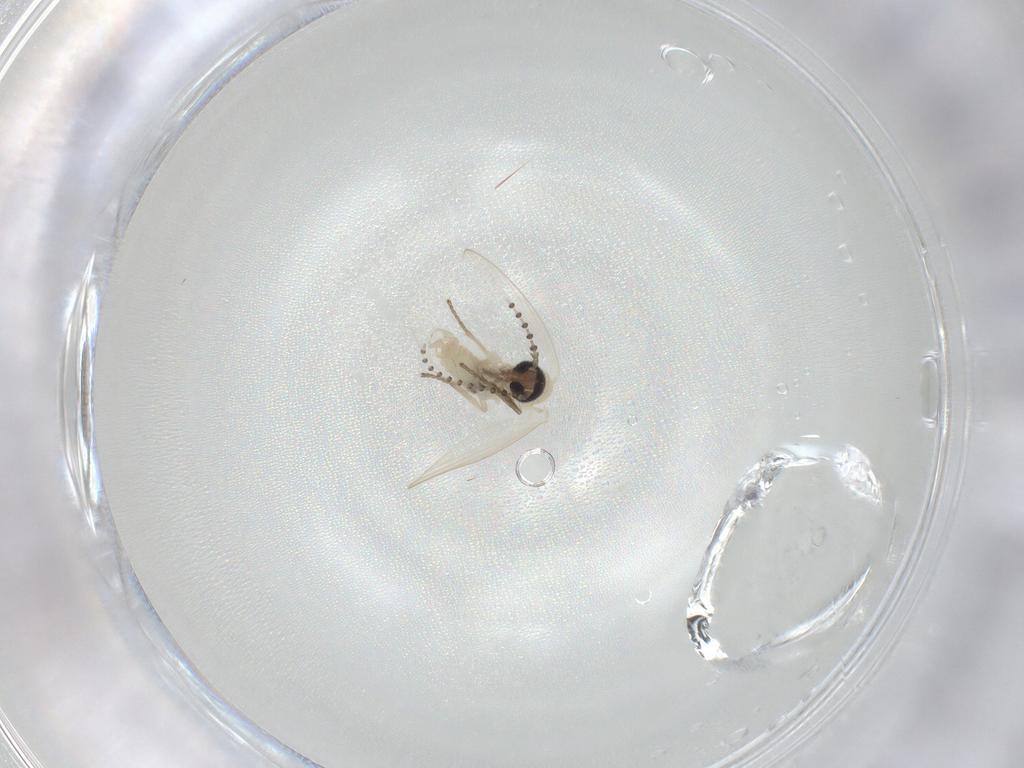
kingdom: Animalia
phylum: Arthropoda
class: Insecta
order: Diptera
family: Psychodidae
